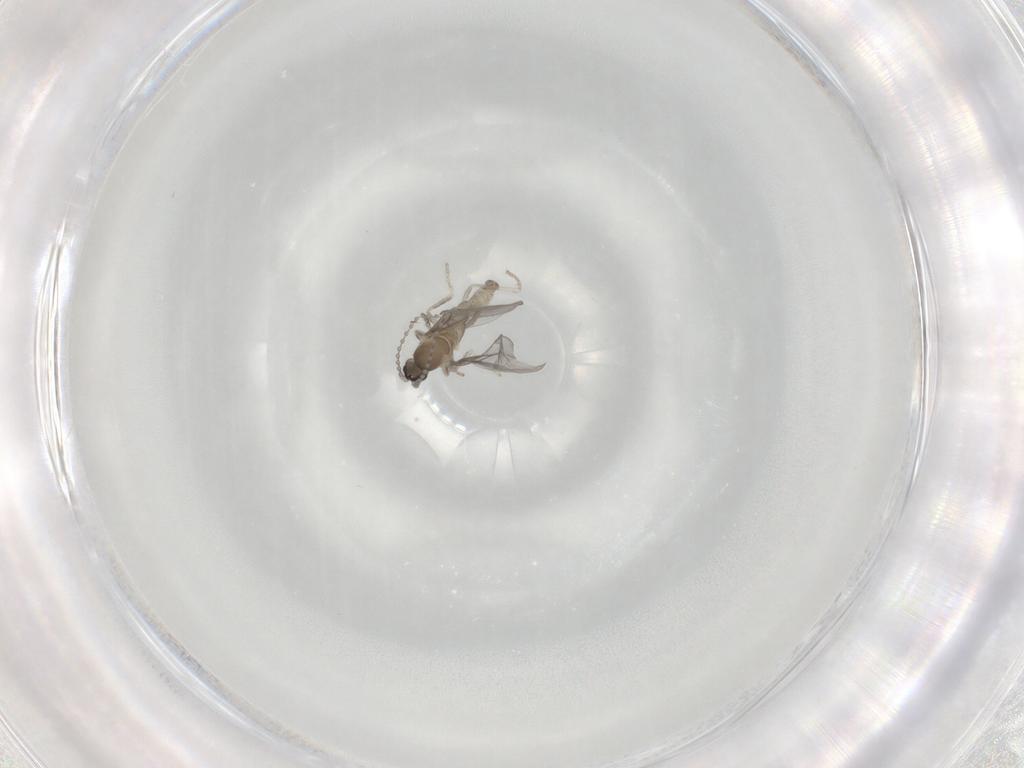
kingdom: Animalia
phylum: Arthropoda
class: Insecta
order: Diptera
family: Cecidomyiidae
